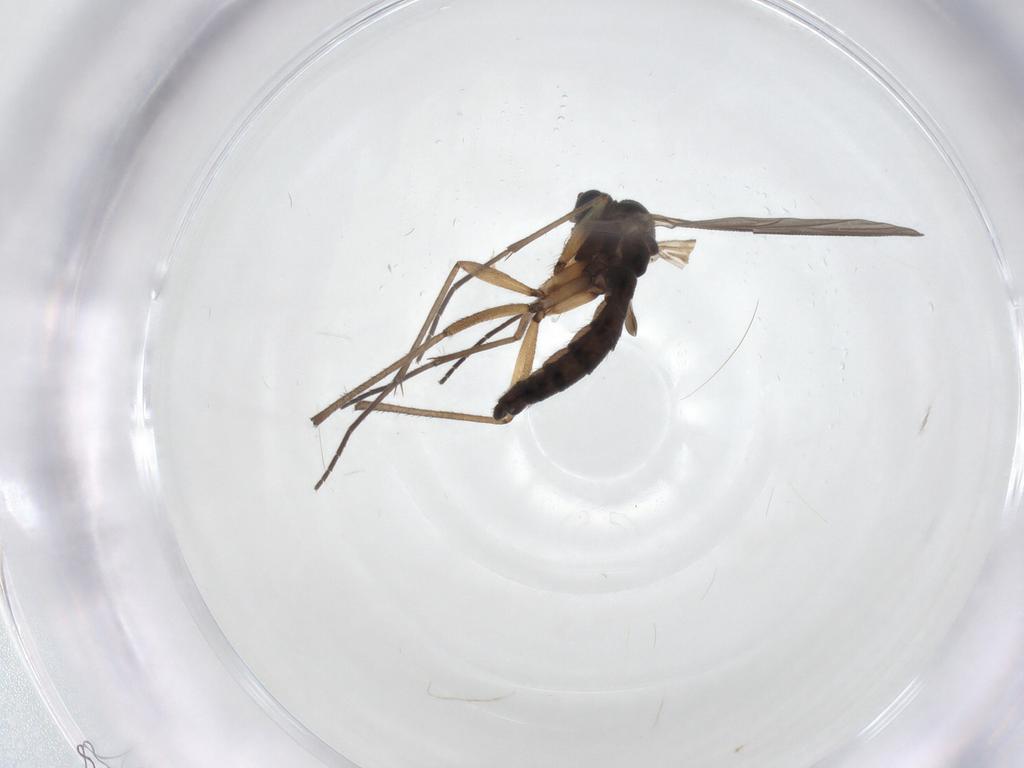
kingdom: Animalia
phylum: Arthropoda
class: Insecta
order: Diptera
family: Sciaridae
